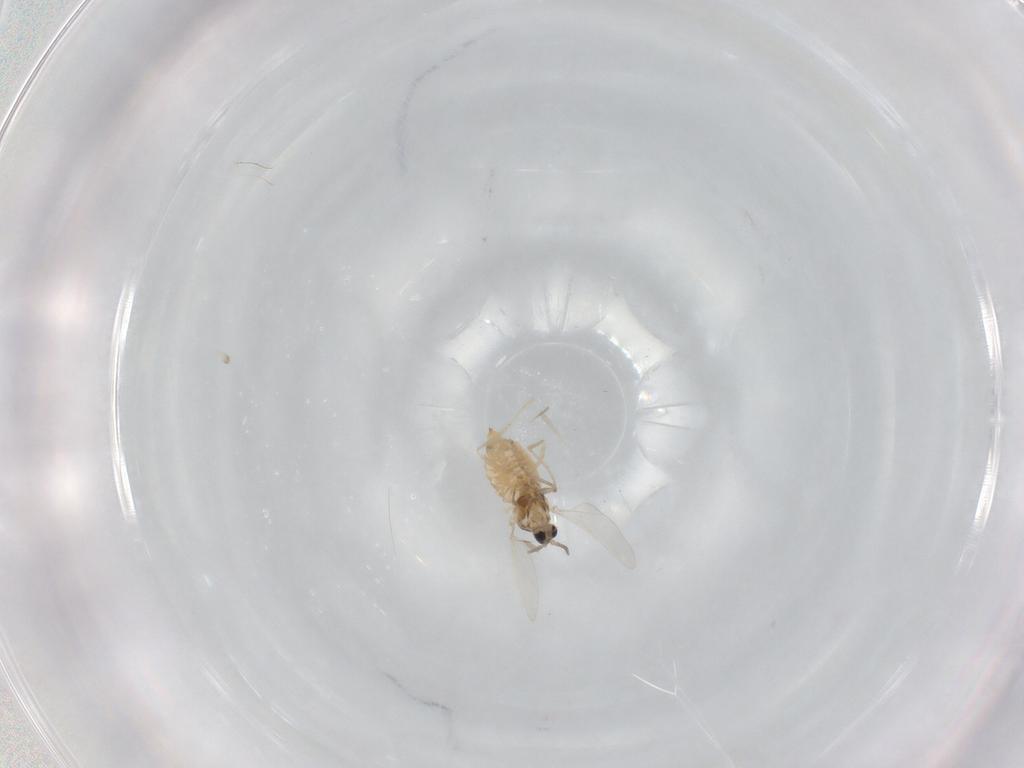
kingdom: Animalia
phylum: Arthropoda
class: Insecta
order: Diptera
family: Cecidomyiidae
